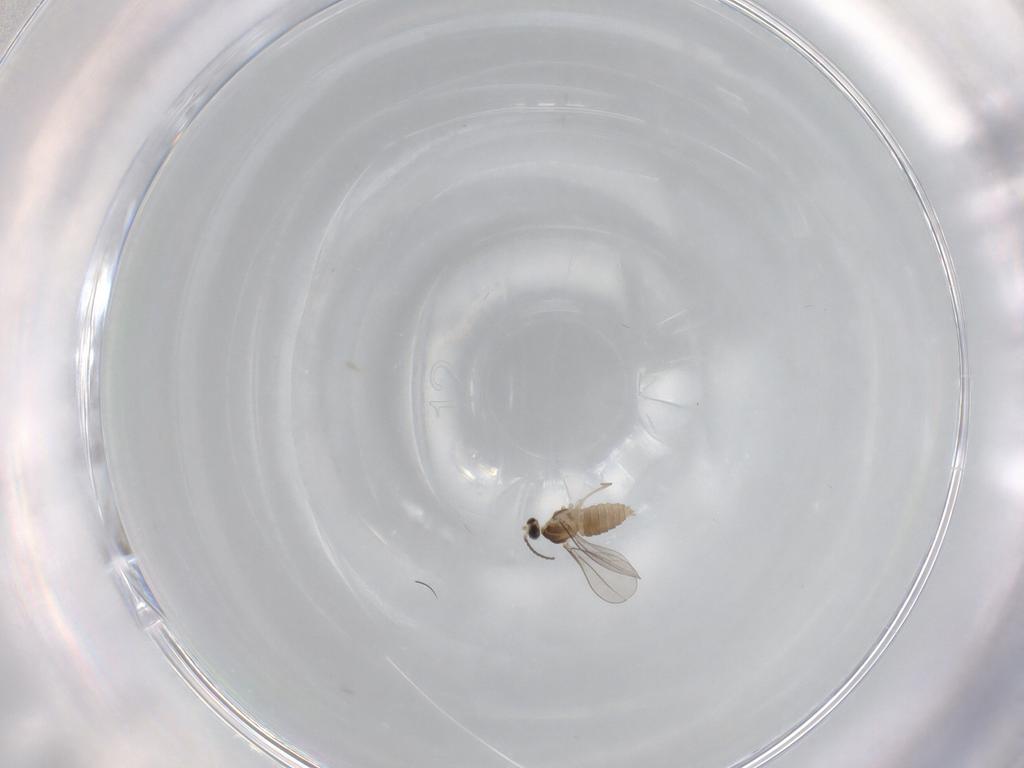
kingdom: Animalia
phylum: Arthropoda
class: Insecta
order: Diptera
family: Cecidomyiidae
